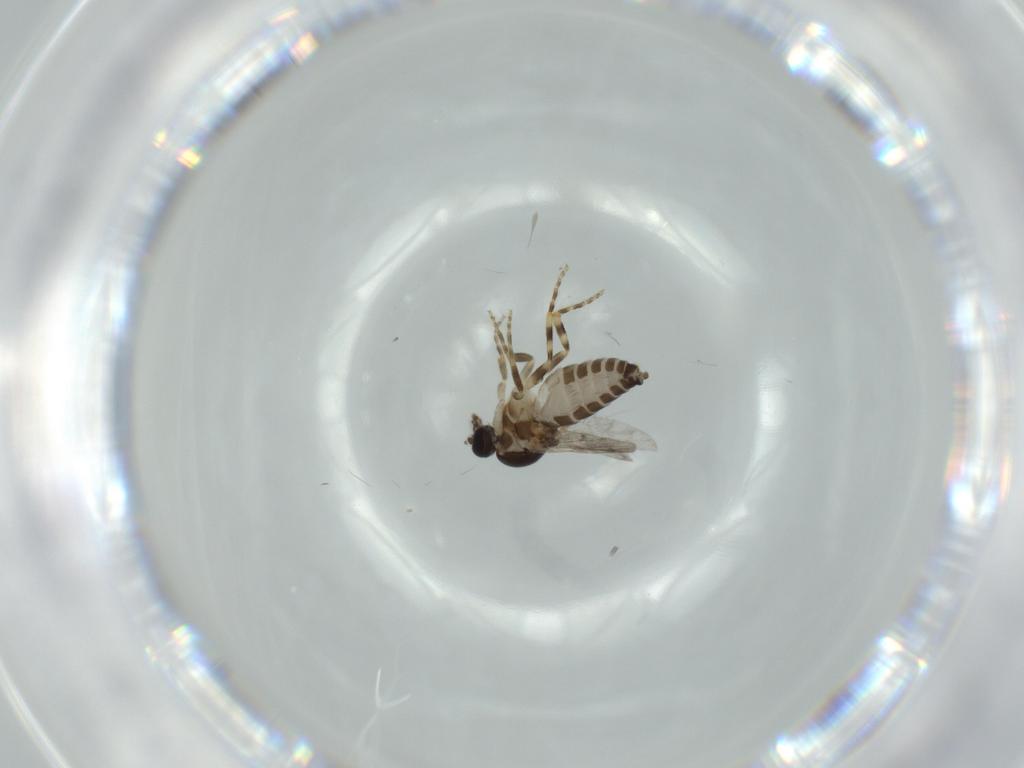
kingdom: Animalia
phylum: Arthropoda
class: Insecta
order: Diptera
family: Ceratopogonidae
